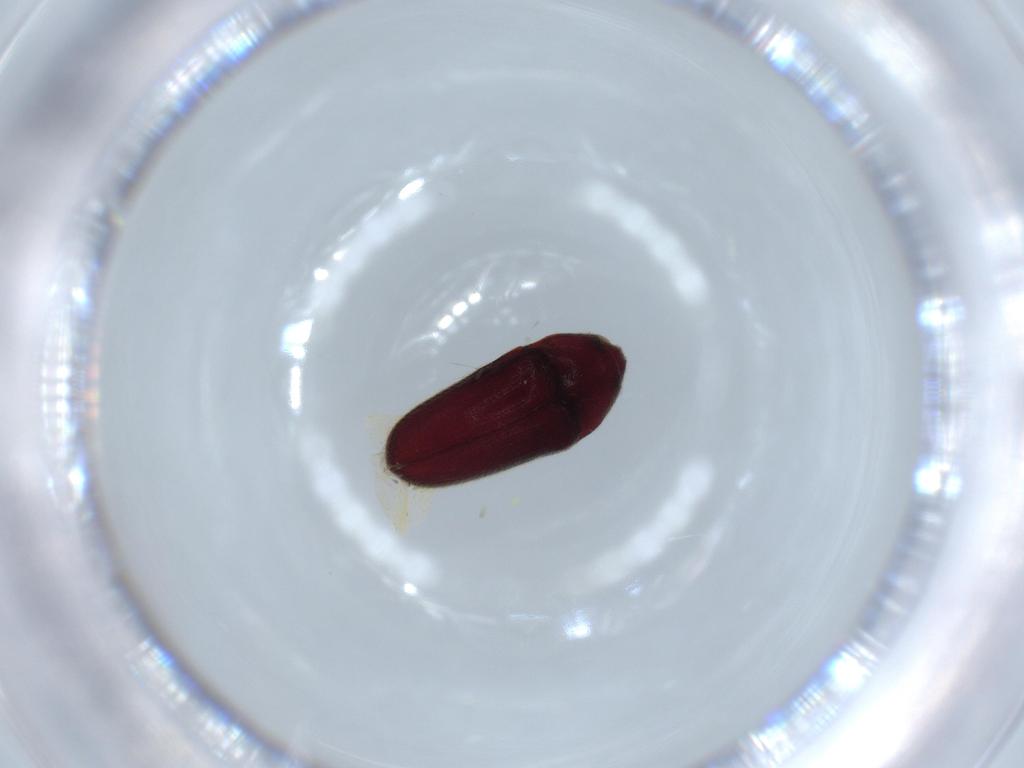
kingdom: Animalia
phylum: Arthropoda
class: Insecta
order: Coleoptera
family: Throscidae
